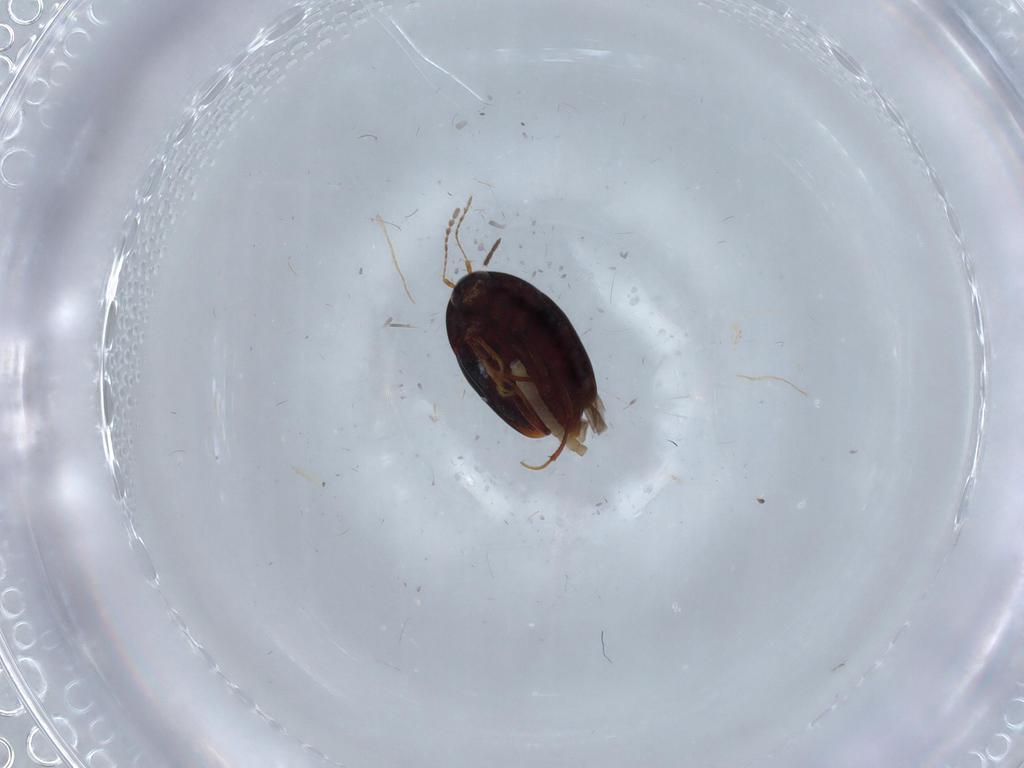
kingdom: Animalia
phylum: Arthropoda
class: Insecta
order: Coleoptera
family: Staphylinidae
